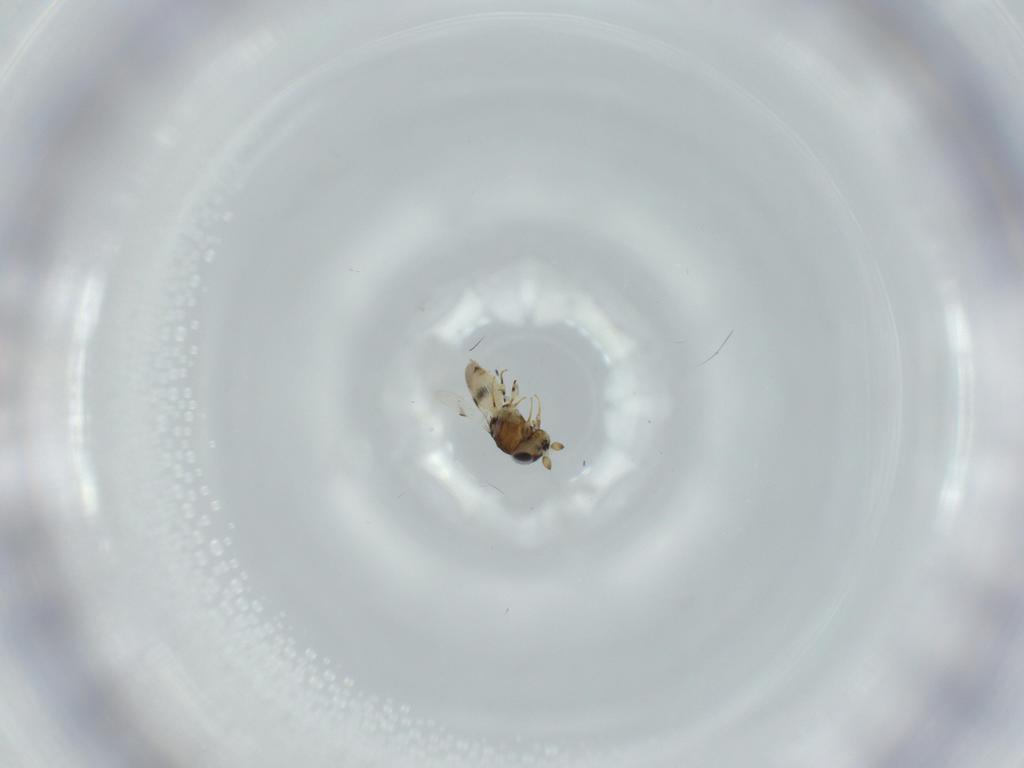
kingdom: Animalia
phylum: Arthropoda
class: Insecta
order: Hymenoptera
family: Scelionidae
